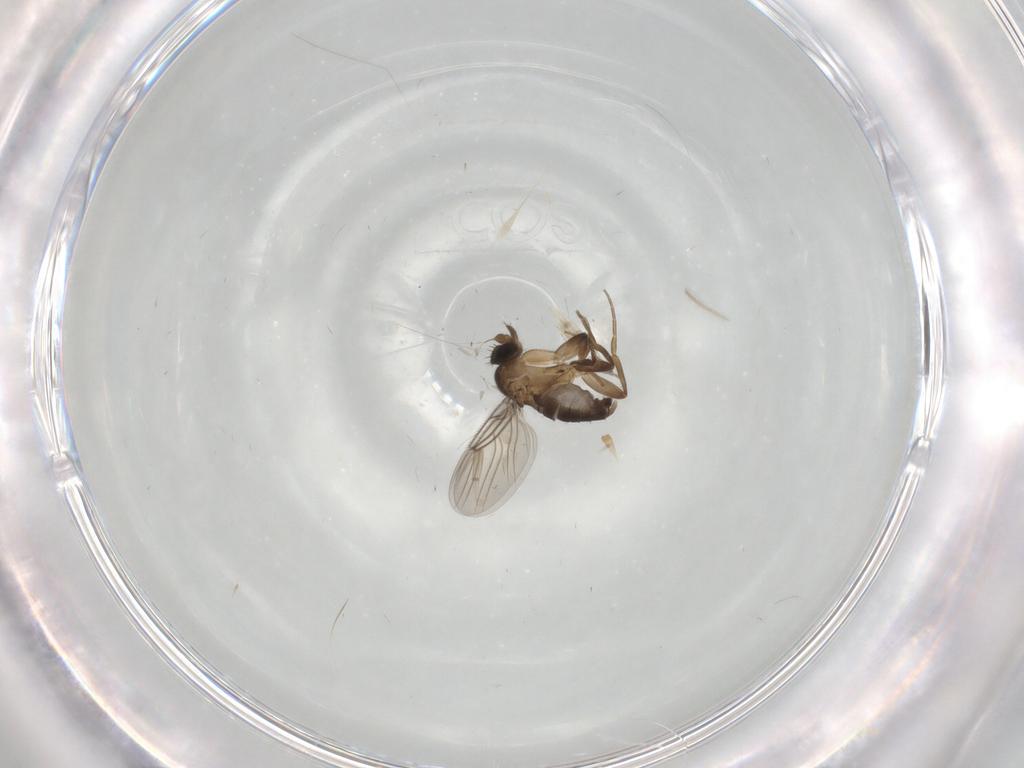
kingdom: Animalia
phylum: Arthropoda
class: Insecta
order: Diptera
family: Phoridae
